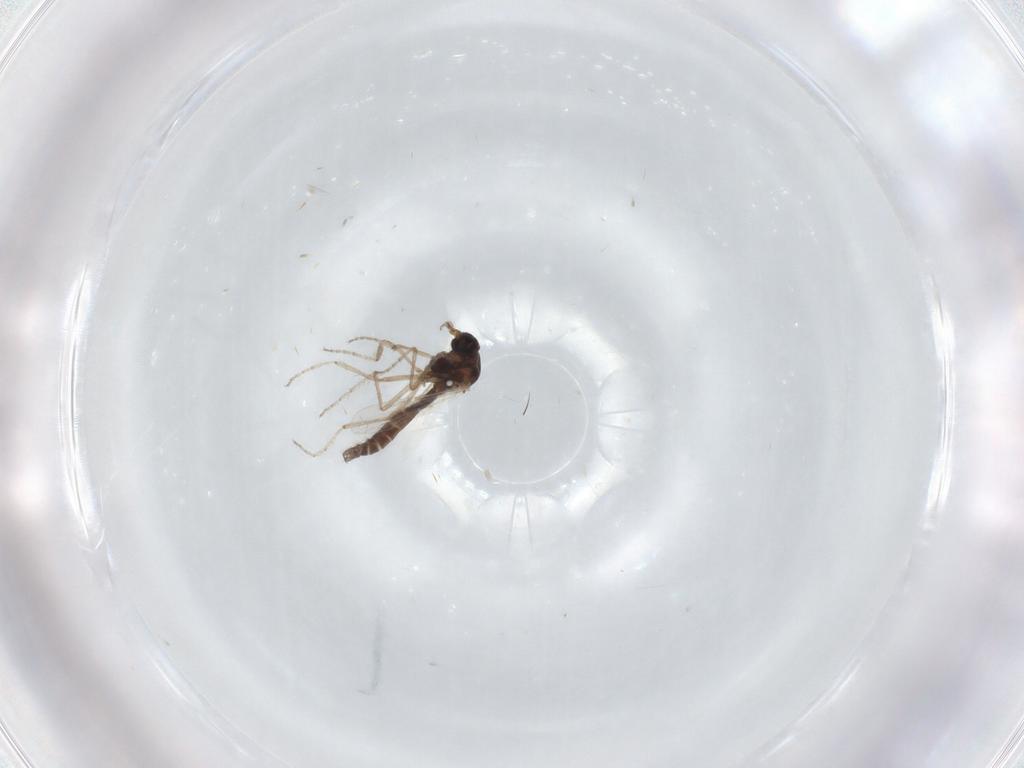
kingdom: Animalia
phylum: Arthropoda
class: Insecta
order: Diptera
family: Ceratopogonidae
